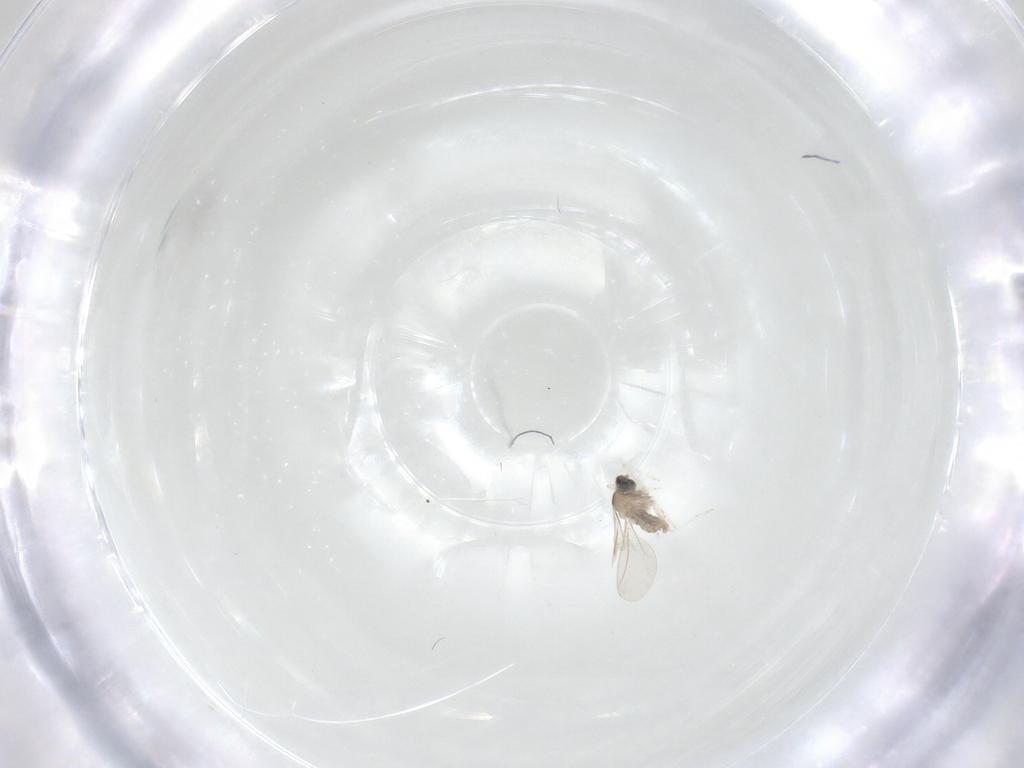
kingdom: Animalia
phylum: Arthropoda
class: Insecta
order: Diptera
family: Cecidomyiidae
